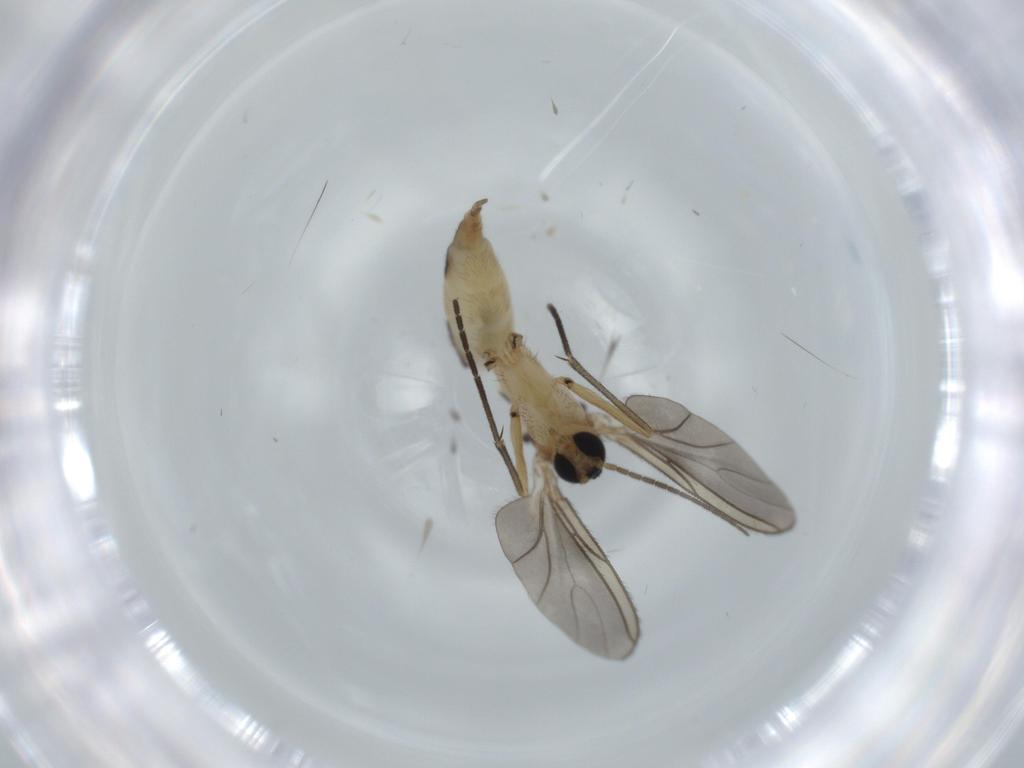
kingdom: Animalia
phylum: Arthropoda
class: Insecta
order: Diptera
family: Sciaridae
